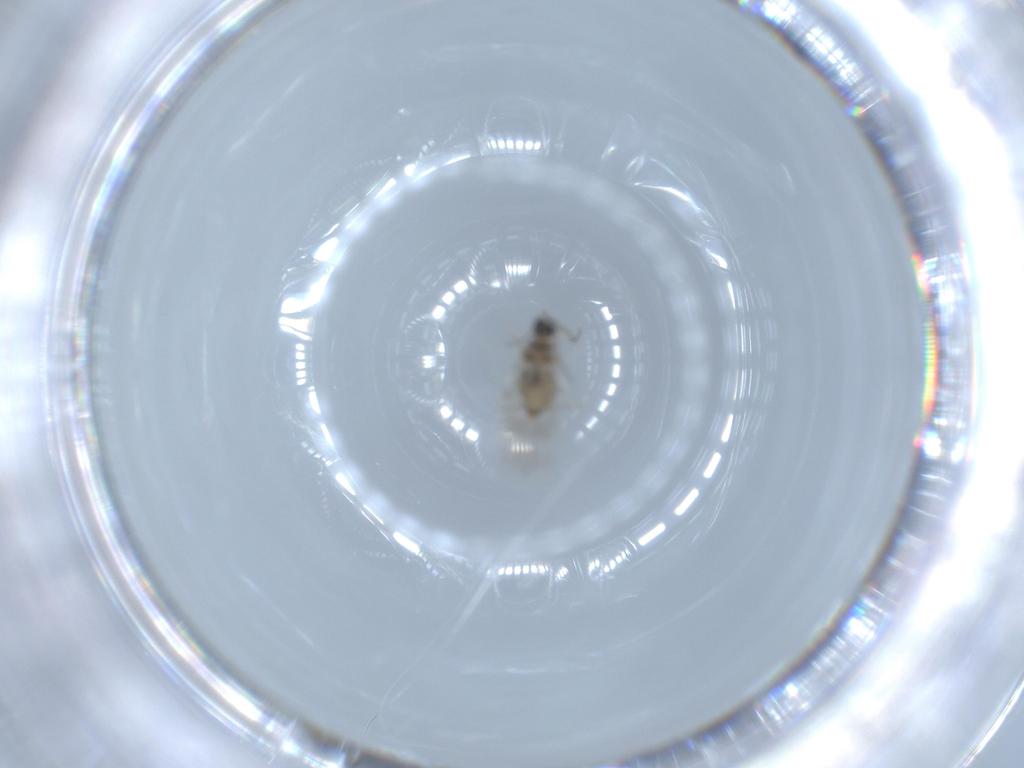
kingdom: Animalia
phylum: Arthropoda
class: Insecta
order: Diptera
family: Cecidomyiidae
